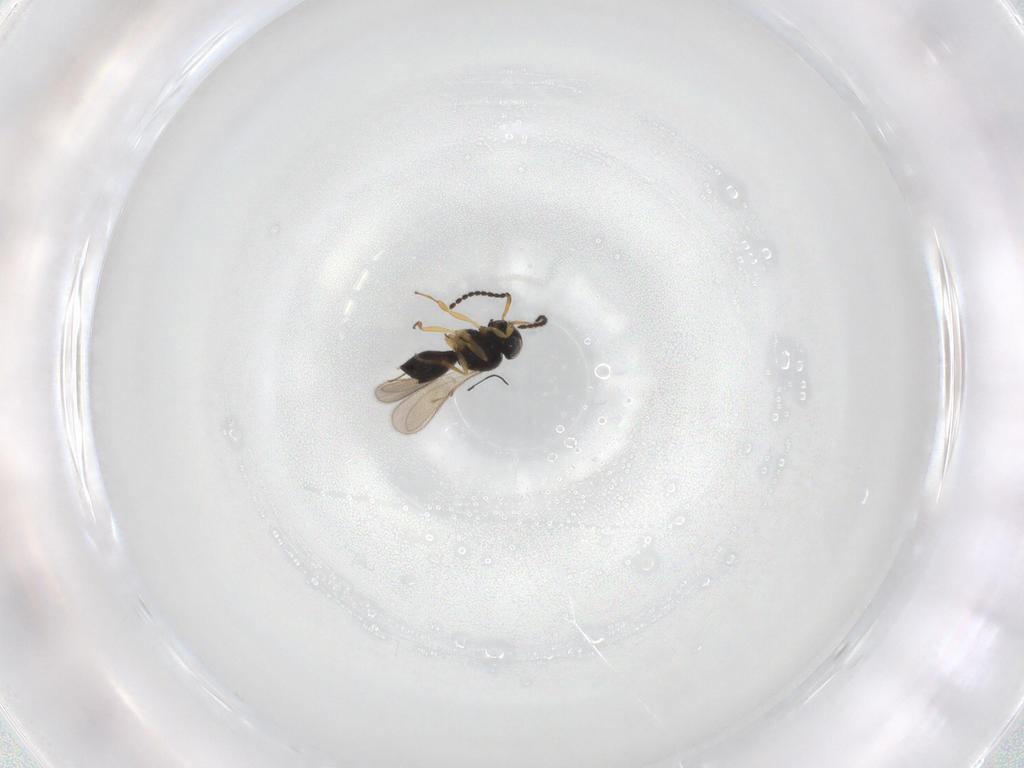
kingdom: Animalia
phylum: Arthropoda
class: Insecta
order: Hymenoptera
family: Scelionidae
